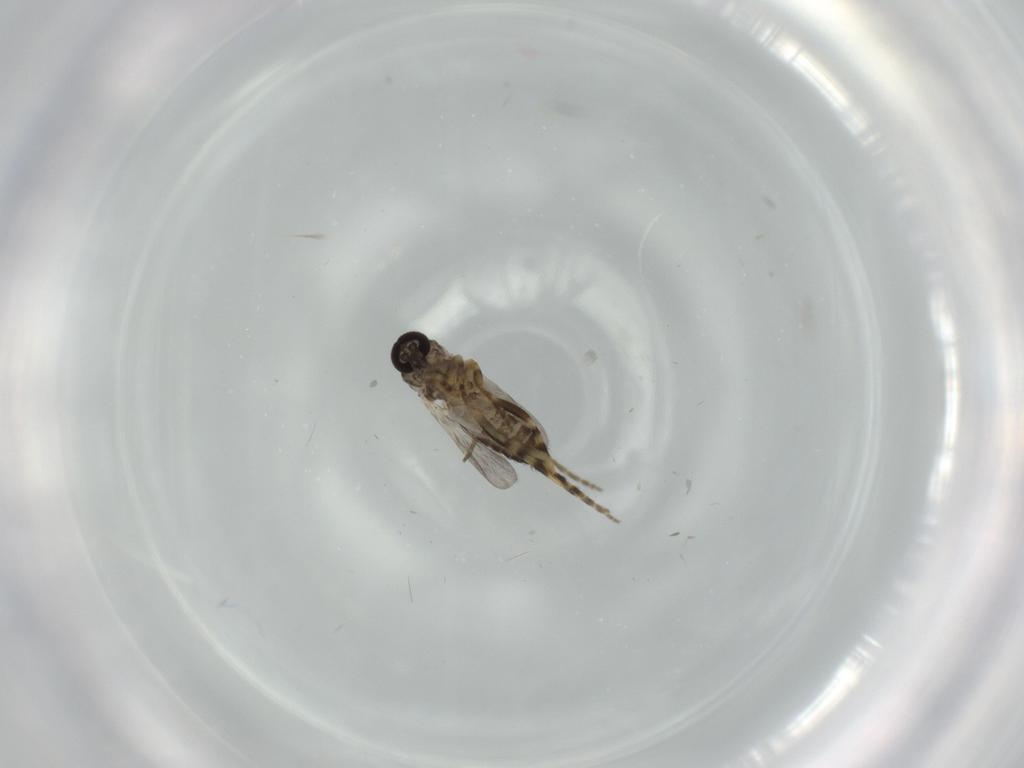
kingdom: Animalia
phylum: Arthropoda
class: Insecta
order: Diptera
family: Ceratopogonidae
